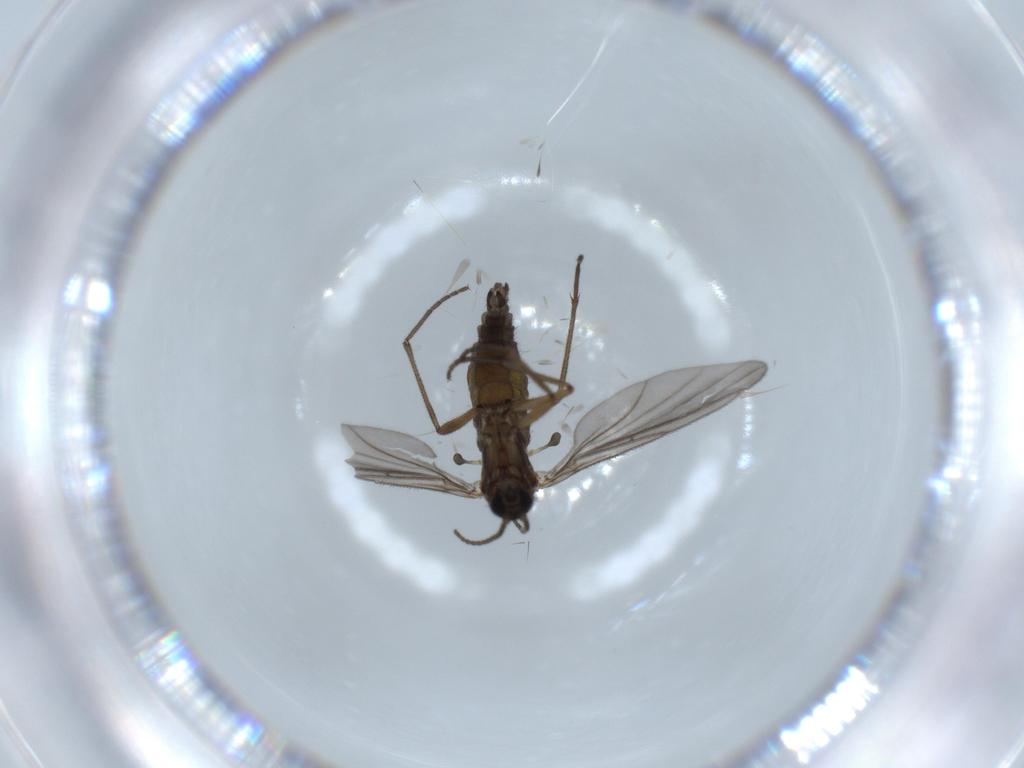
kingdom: Animalia
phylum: Arthropoda
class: Insecta
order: Diptera
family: Sciaridae
